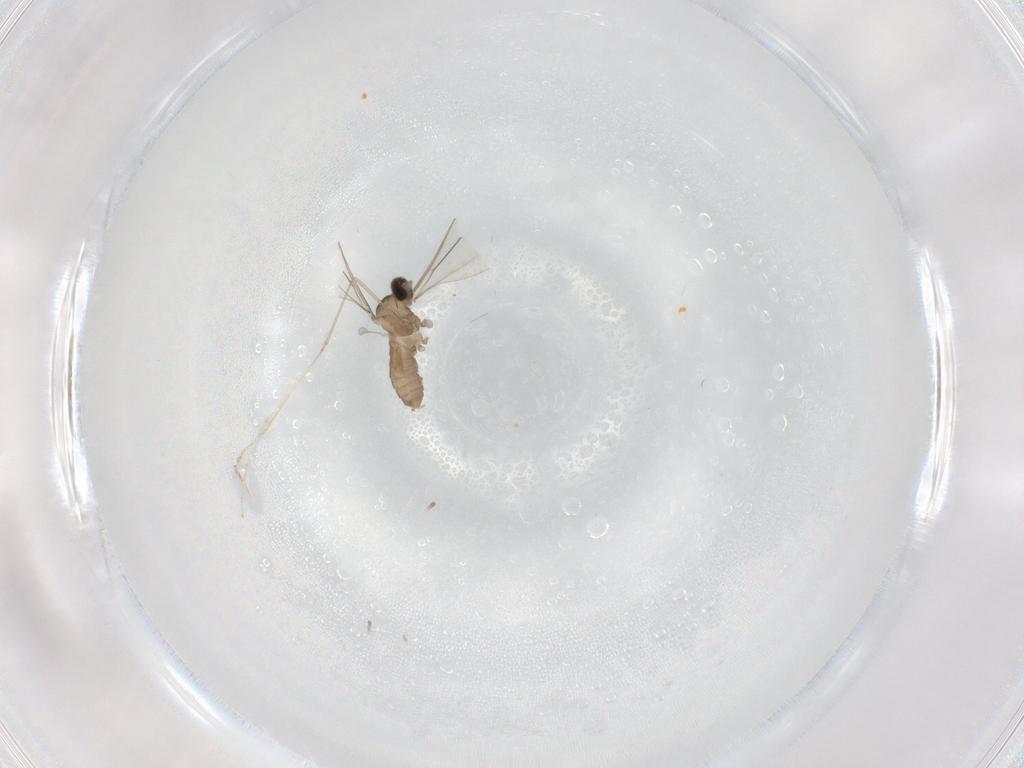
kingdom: Animalia
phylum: Arthropoda
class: Insecta
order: Diptera
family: Cecidomyiidae
